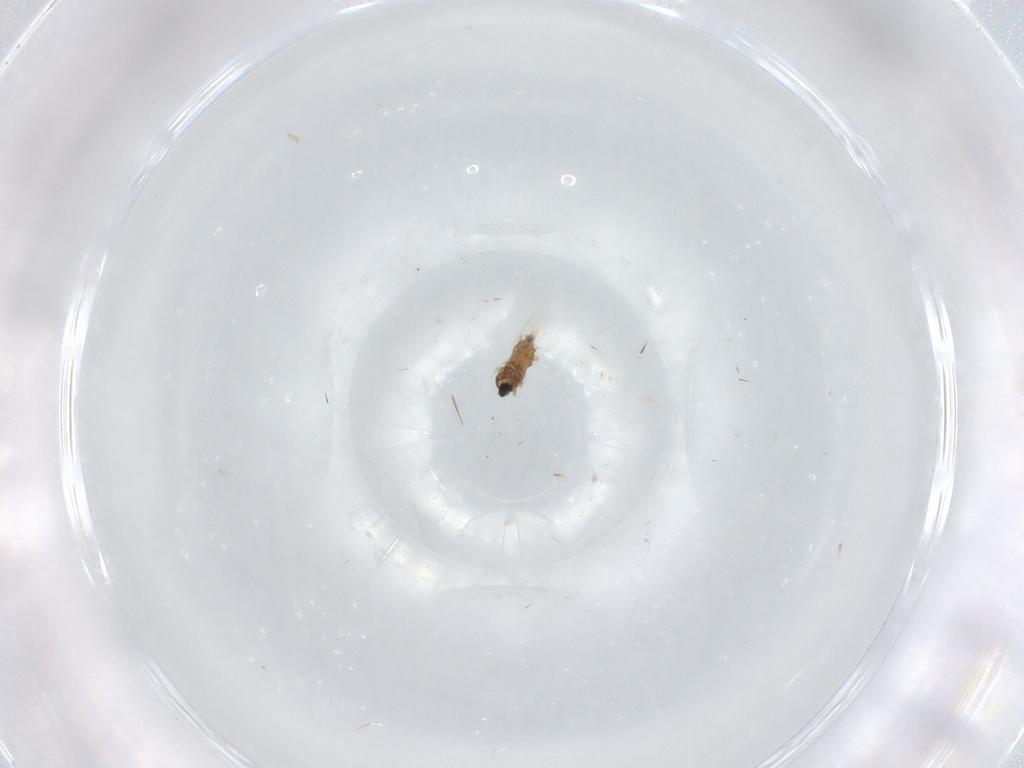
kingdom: Animalia
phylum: Arthropoda
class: Insecta
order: Diptera
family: Cecidomyiidae
